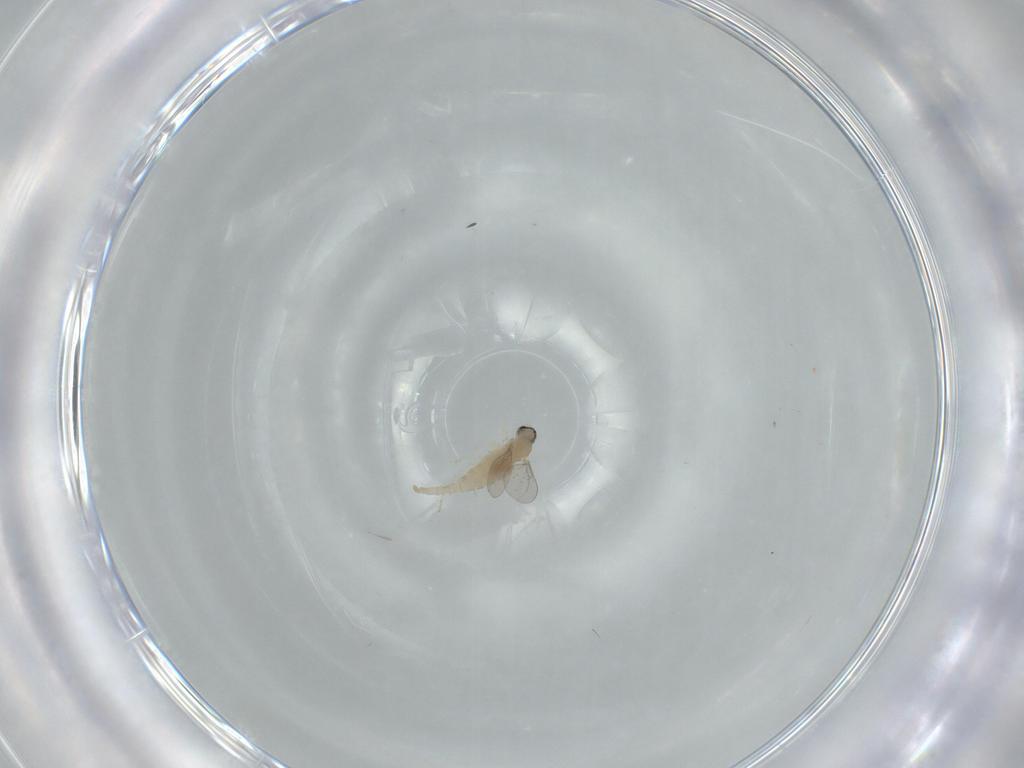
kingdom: Animalia
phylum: Arthropoda
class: Insecta
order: Diptera
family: Cecidomyiidae
